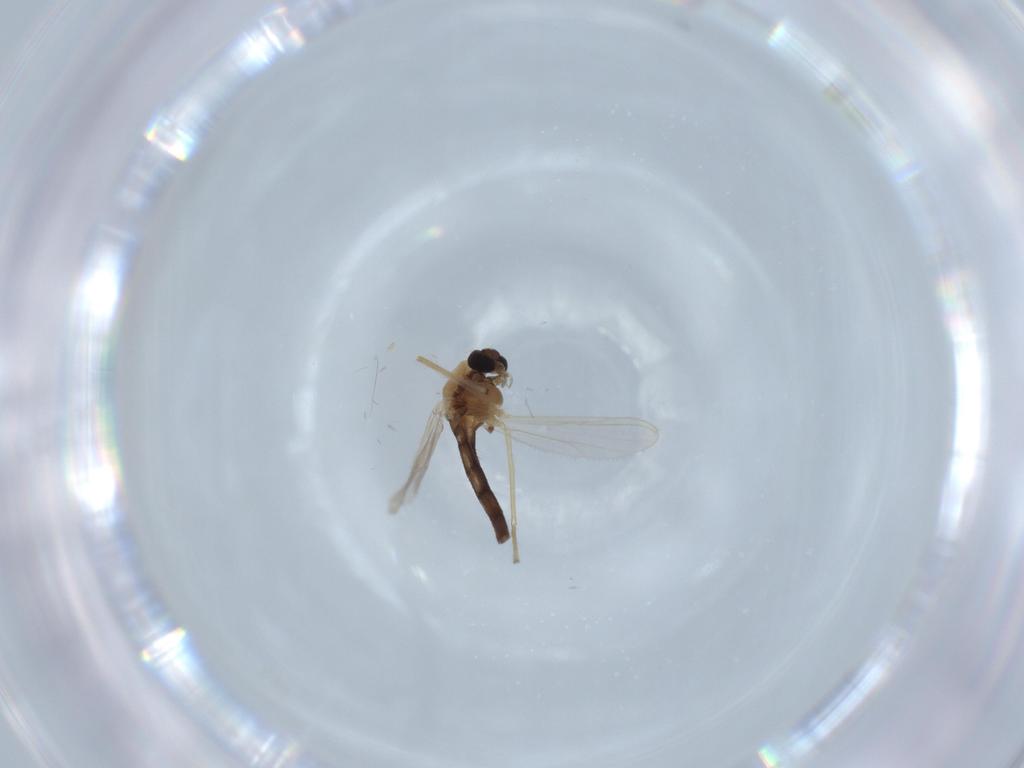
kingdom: Animalia
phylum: Arthropoda
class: Insecta
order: Diptera
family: Chironomidae
